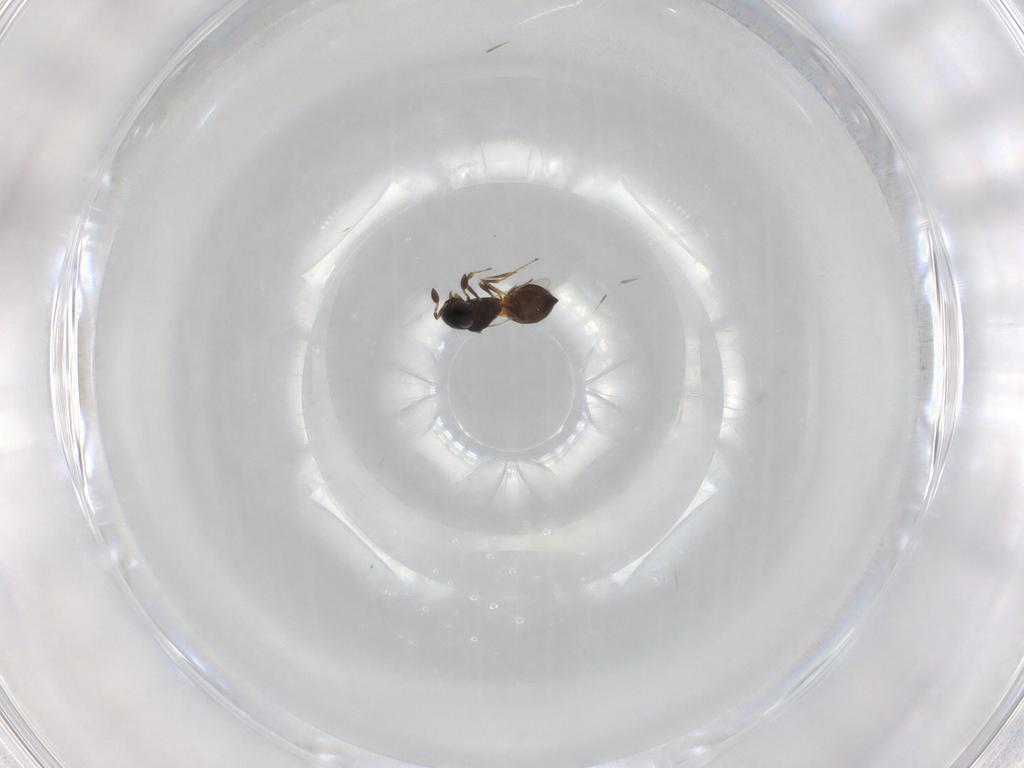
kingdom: Animalia
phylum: Arthropoda
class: Insecta
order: Hymenoptera
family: Scelionidae
